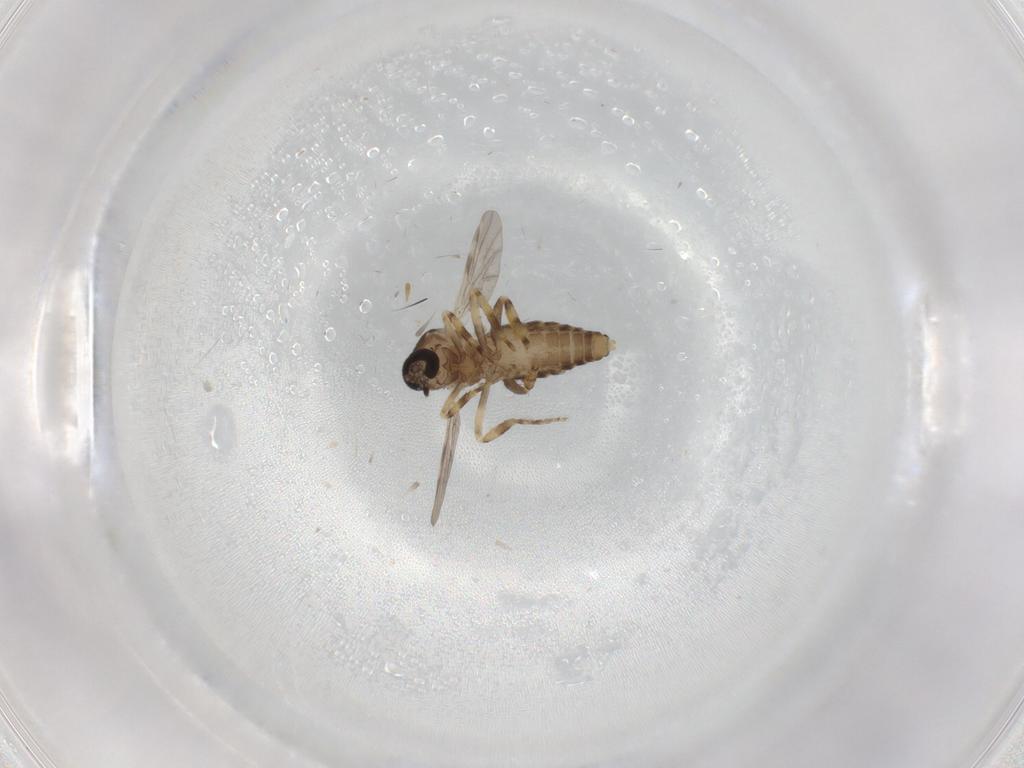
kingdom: Animalia
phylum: Arthropoda
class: Insecta
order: Diptera
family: Ceratopogonidae
